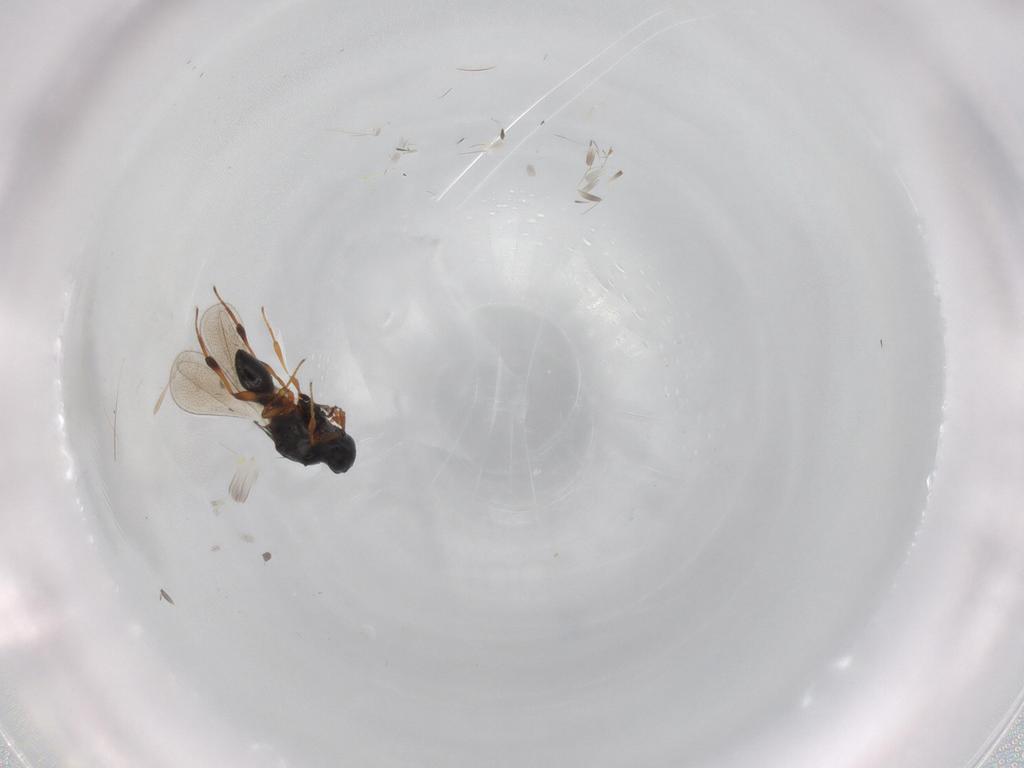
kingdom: Animalia
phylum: Arthropoda
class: Insecta
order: Hymenoptera
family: Platygastridae
